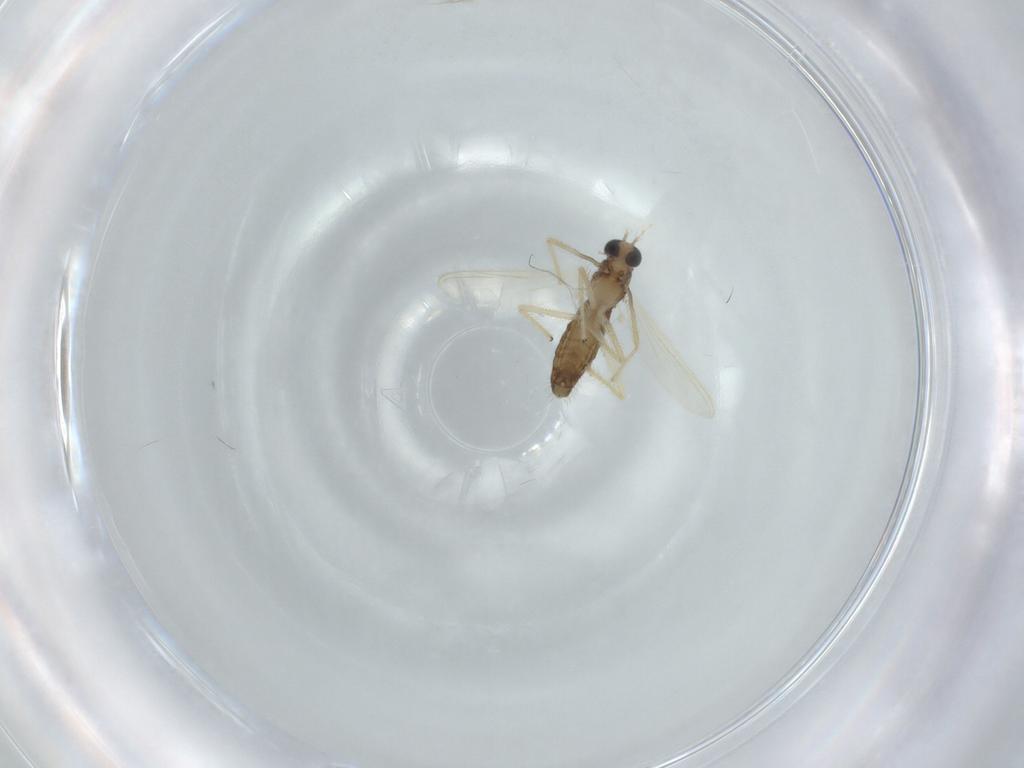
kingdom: Animalia
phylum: Arthropoda
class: Insecta
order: Diptera
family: Chironomidae
